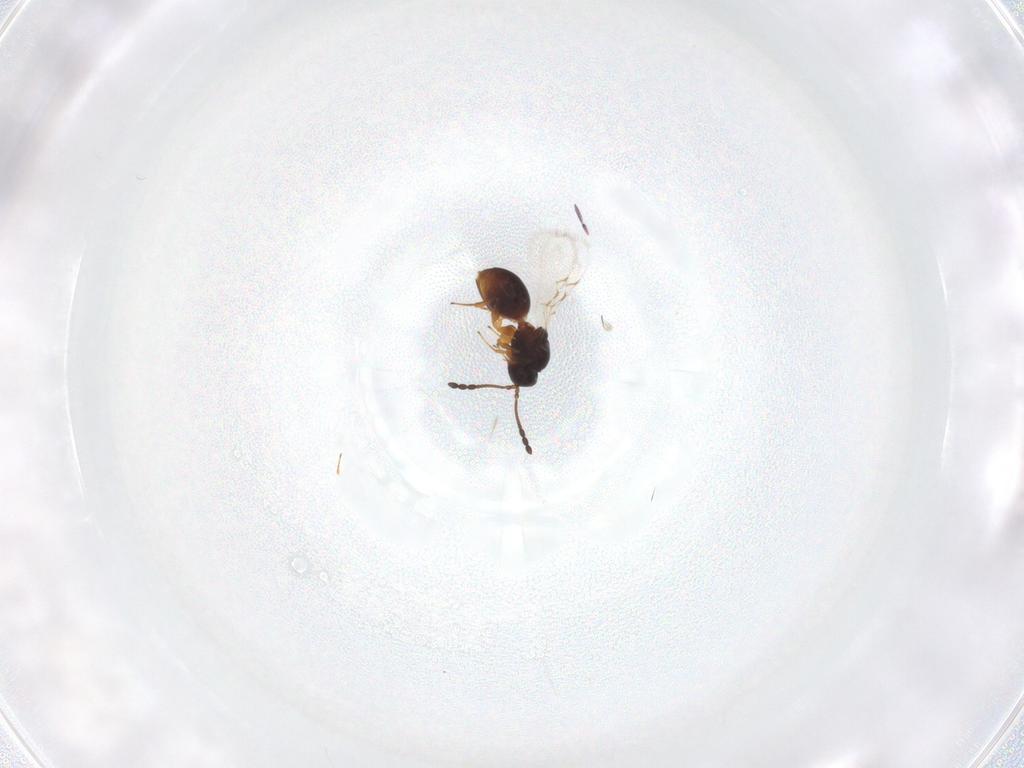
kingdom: Animalia
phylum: Arthropoda
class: Insecta
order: Hymenoptera
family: Figitidae
